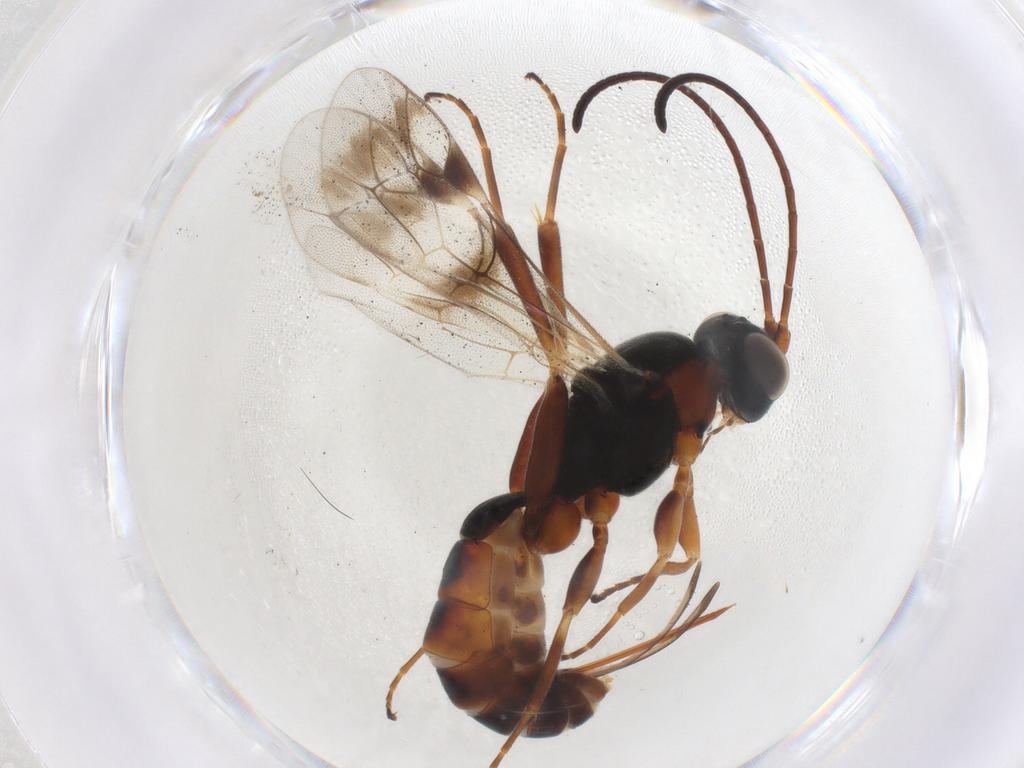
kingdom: Animalia
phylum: Arthropoda
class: Insecta
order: Hymenoptera
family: Ichneumonidae
